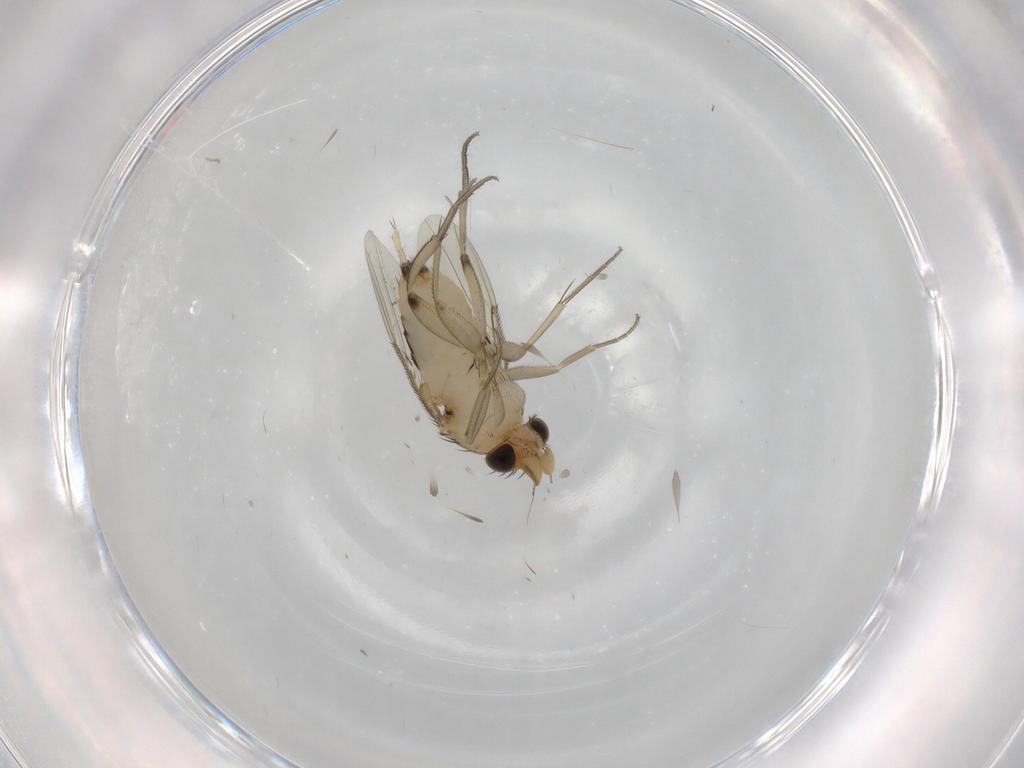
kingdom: Animalia
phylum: Arthropoda
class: Insecta
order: Diptera
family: Phoridae
